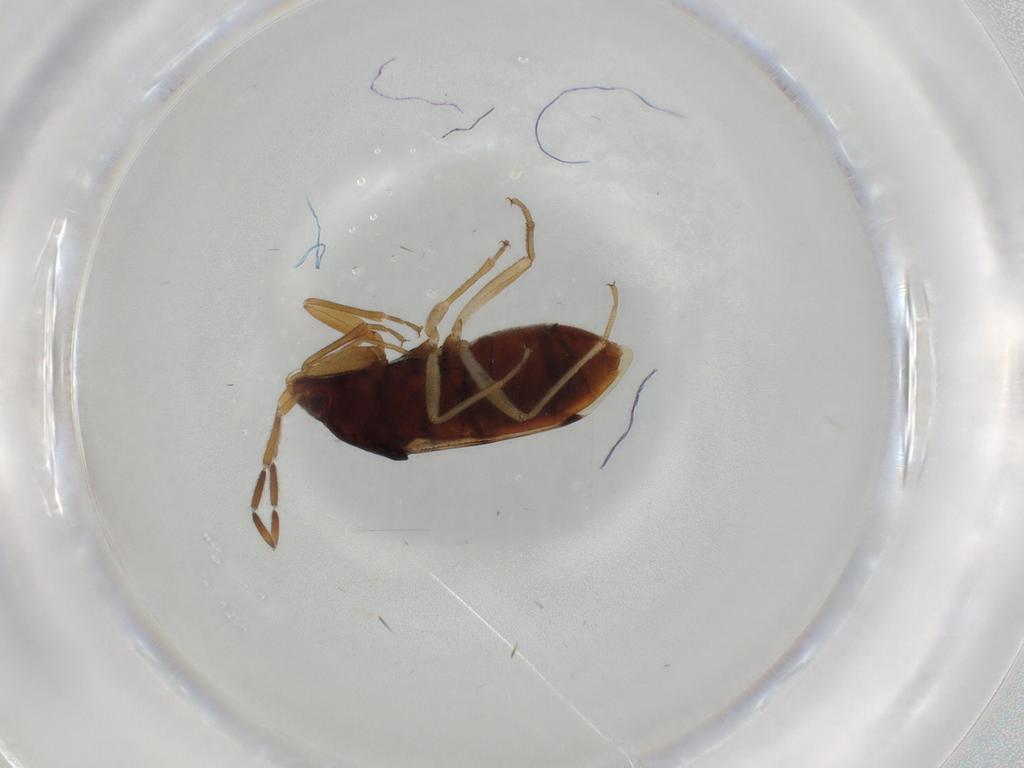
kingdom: Animalia
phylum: Arthropoda
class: Insecta
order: Hemiptera
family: Rhyparochromidae
